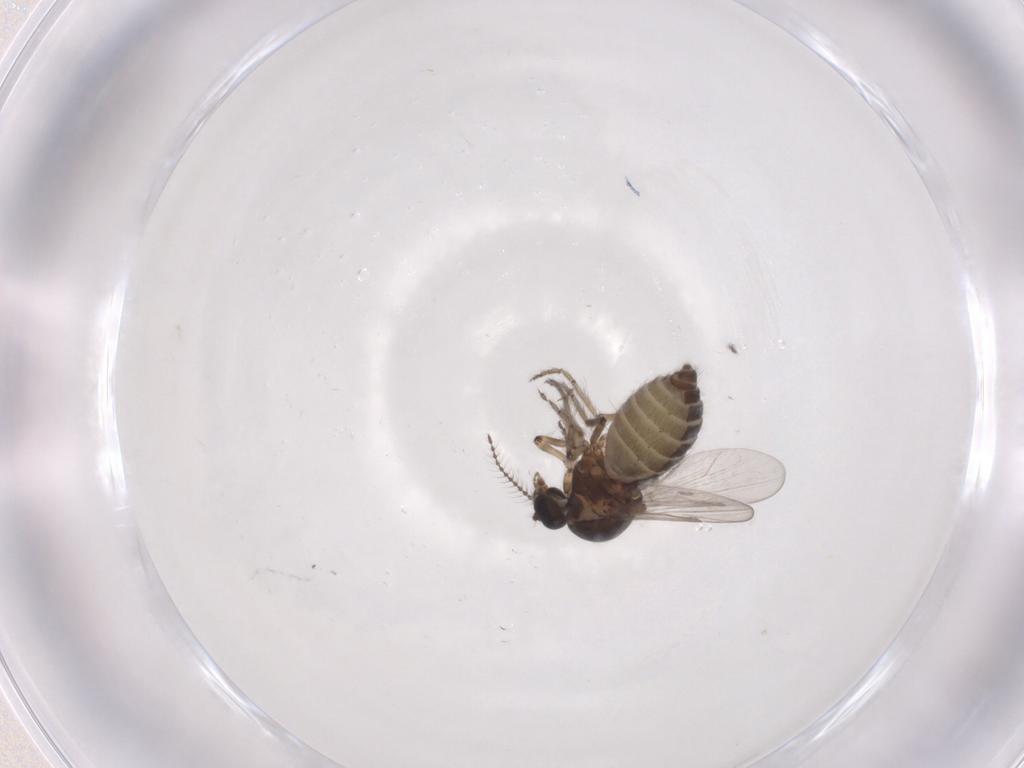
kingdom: Animalia
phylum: Arthropoda
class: Insecta
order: Diptera
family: Ceratopogonidae
